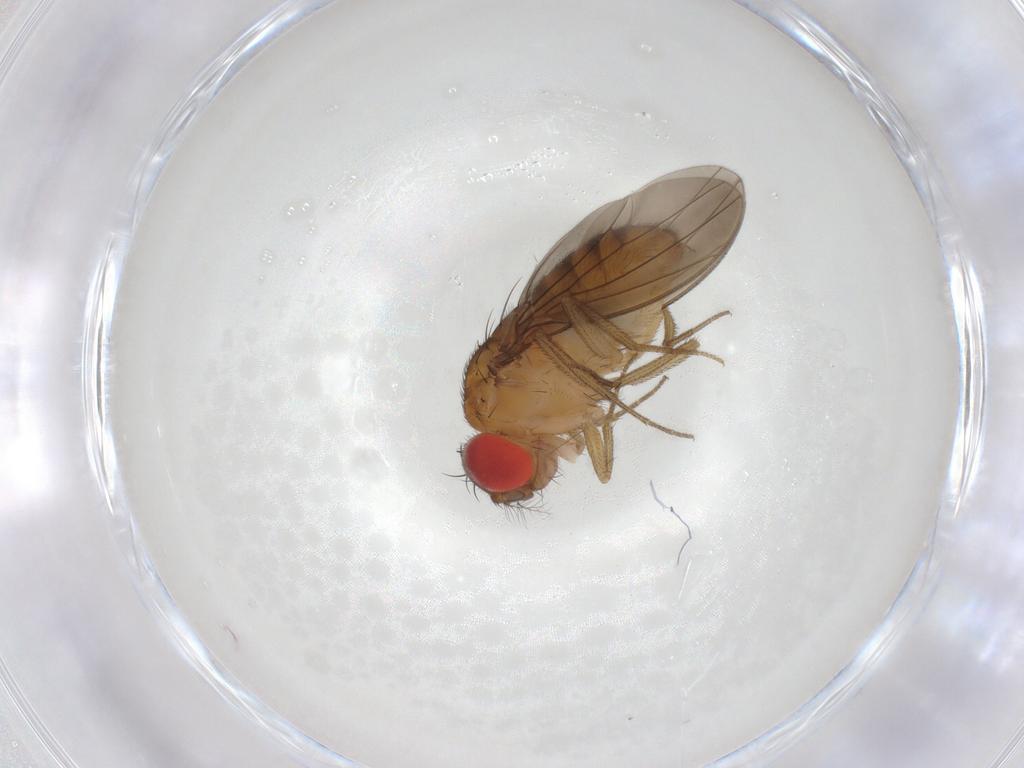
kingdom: Animalia
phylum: Arthropoda
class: Insecta
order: Diptera
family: Drosophilidae
